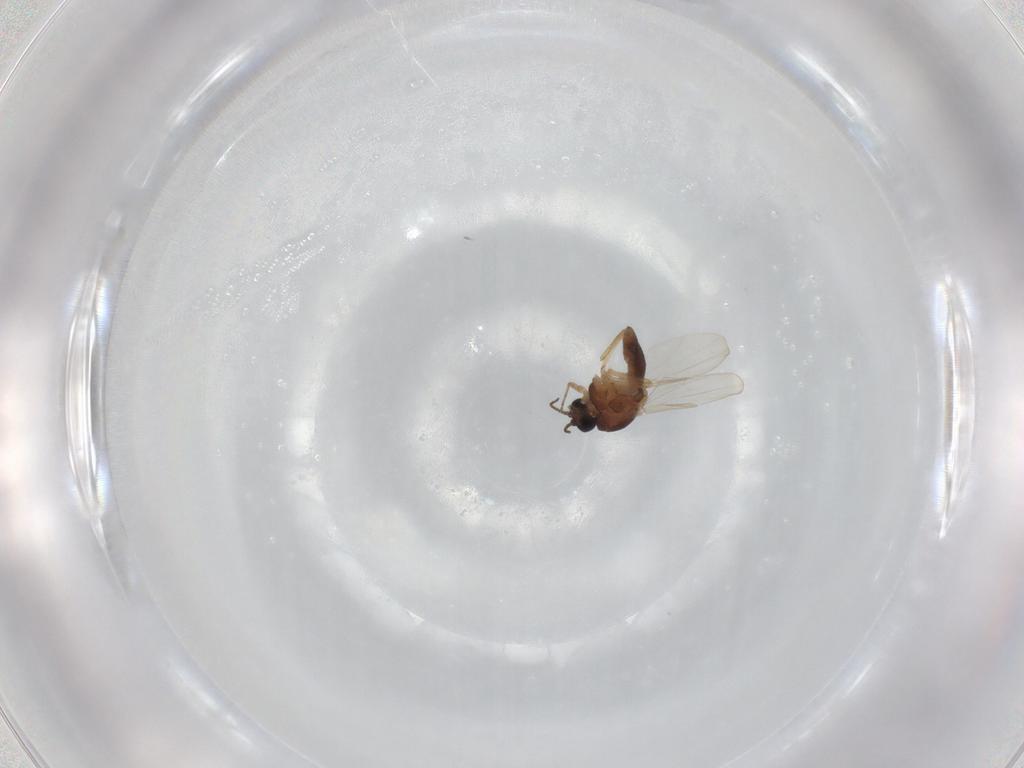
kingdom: Animalia
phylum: Arthropoda
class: Insecta
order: Diptera
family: Ceratopogonidae
